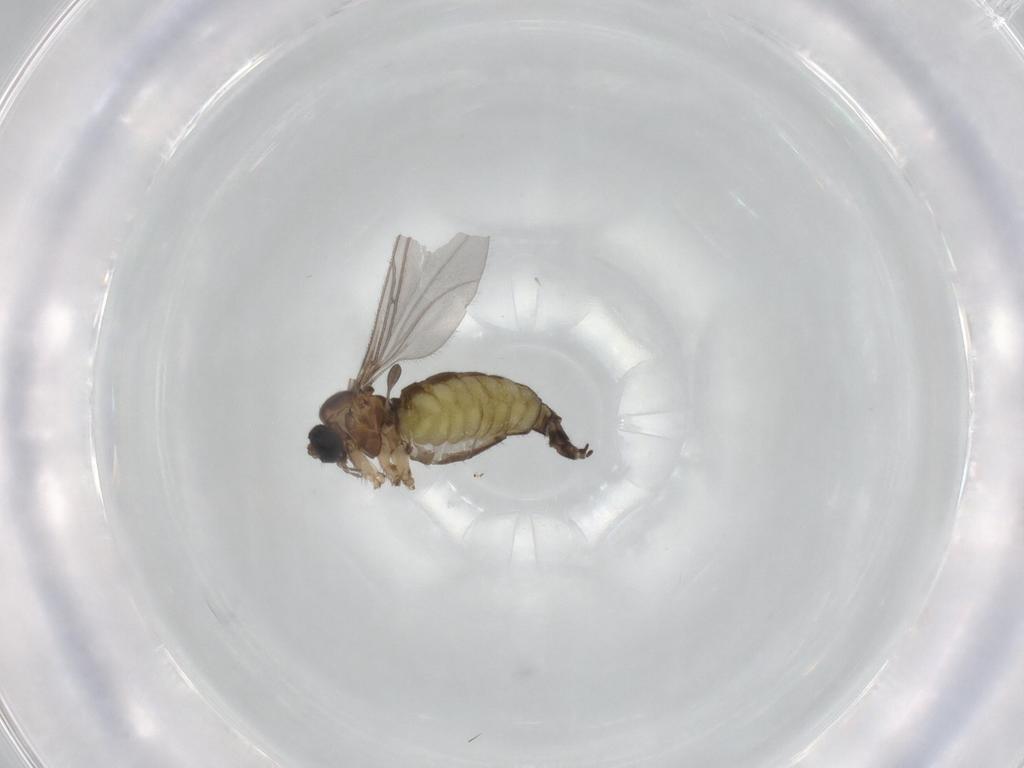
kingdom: Animalia
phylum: Arthropoda
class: Insecta
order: Diptera
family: Sciaridae
